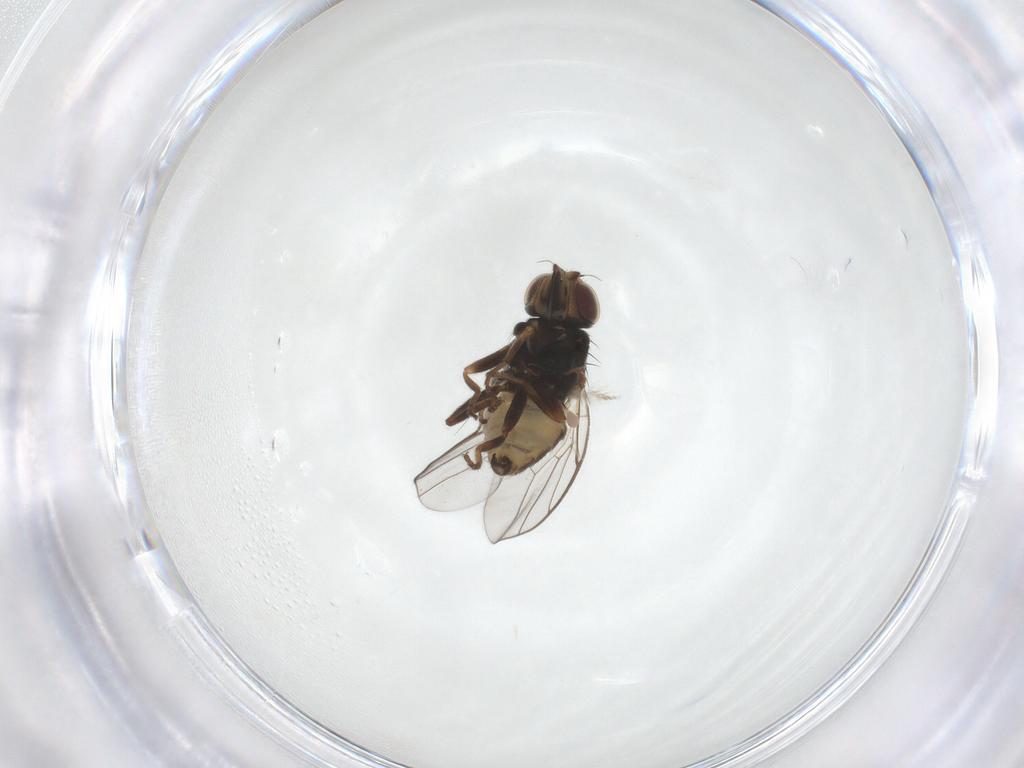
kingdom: Animalia
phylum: Arthropoda
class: Insecta
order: Diptera
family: Chloropidae
